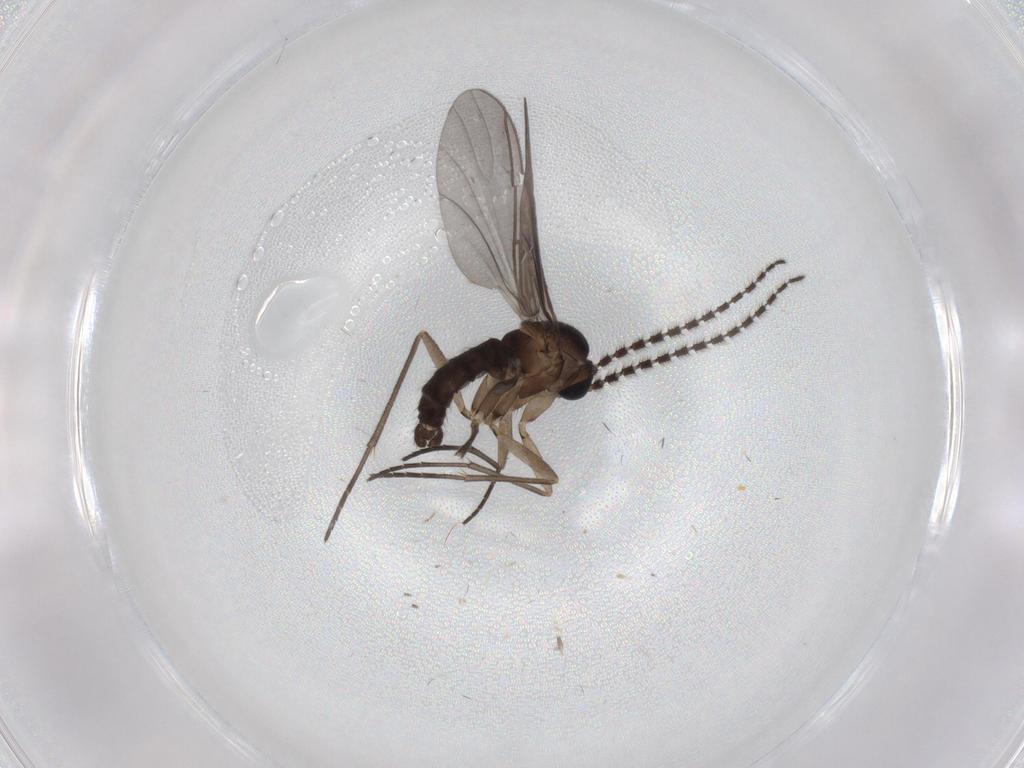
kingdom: Animalia
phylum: Arthropoda
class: Insecta
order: Diptera
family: Sciaridae
